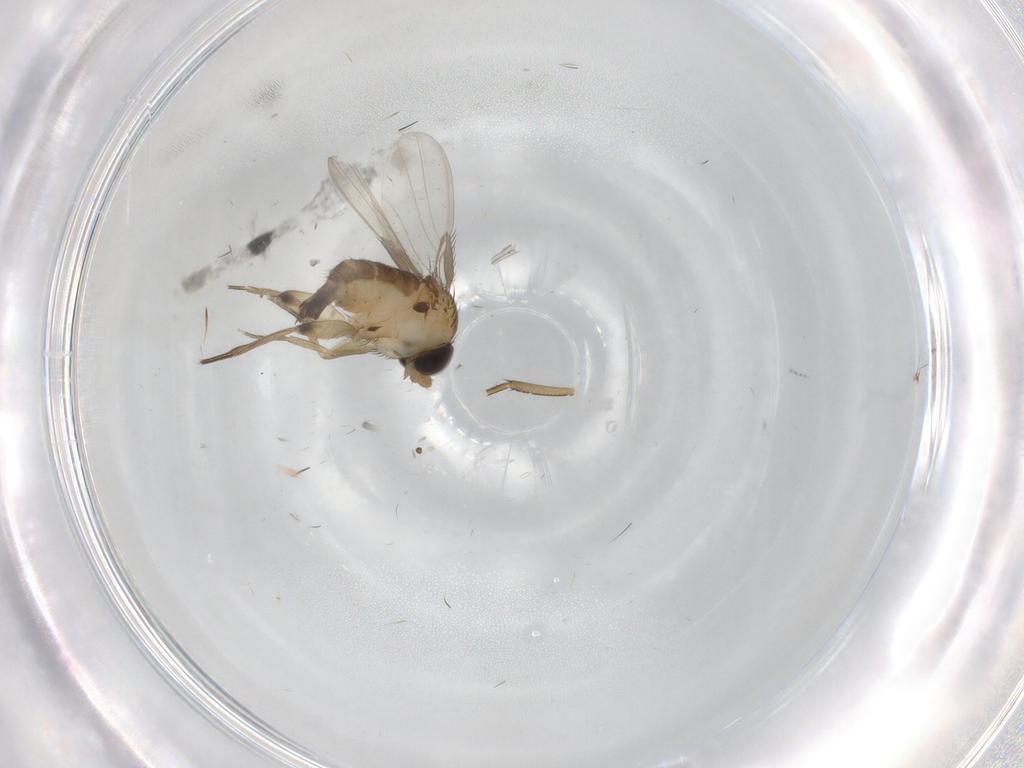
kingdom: Animalia
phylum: Arthropoda
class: Insecta
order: Diptera
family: Phoridae
